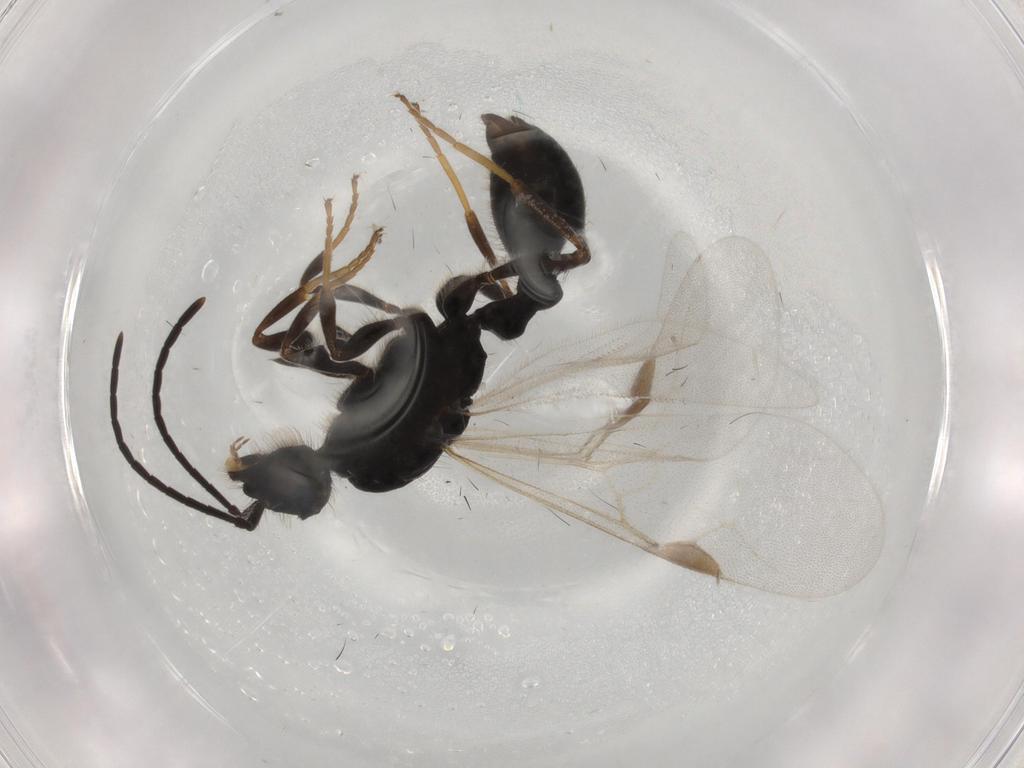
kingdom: Animalia
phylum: Arthropoda
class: Insecta
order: Hymenoptera
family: Formicidae
